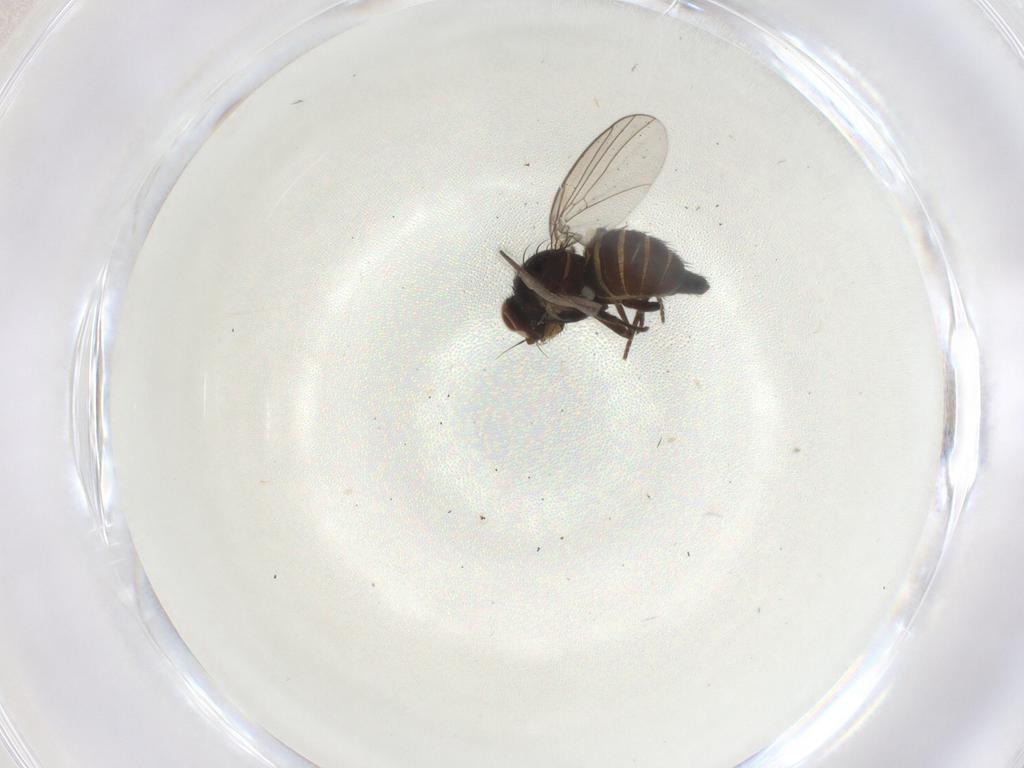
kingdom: Animalia
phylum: Arthropoda
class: Insecta
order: Diptera
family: Agromyzidae
